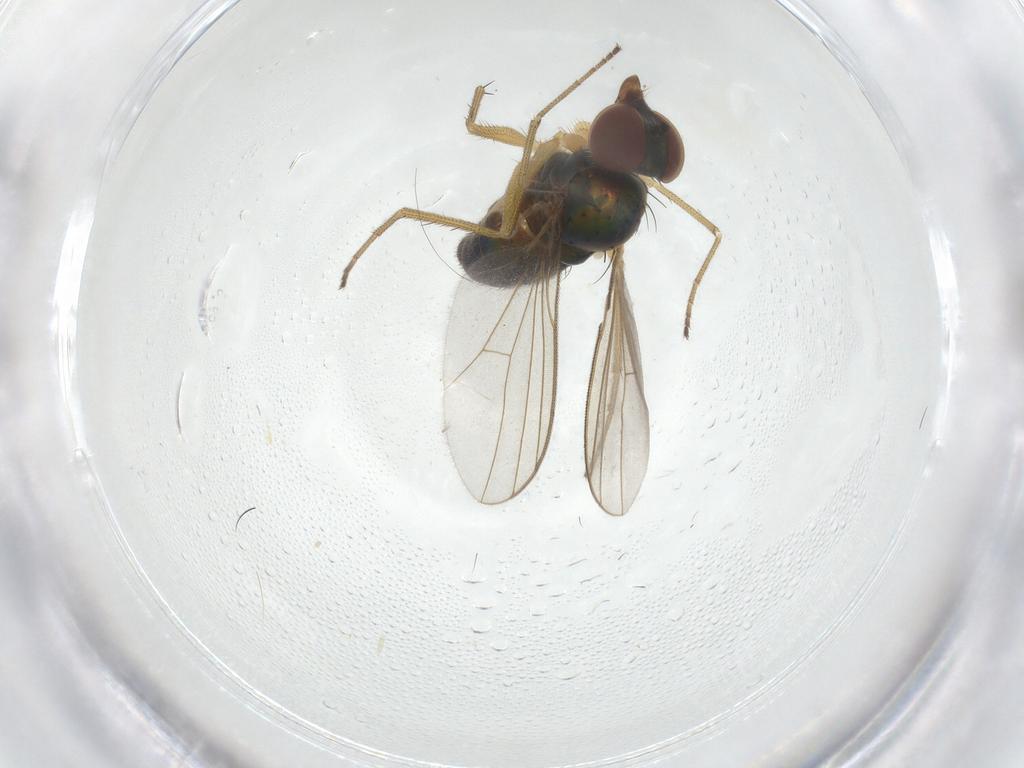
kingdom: Animalia
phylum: Arthropoda
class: Insecta
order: Diptera
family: Dolichopodidae
